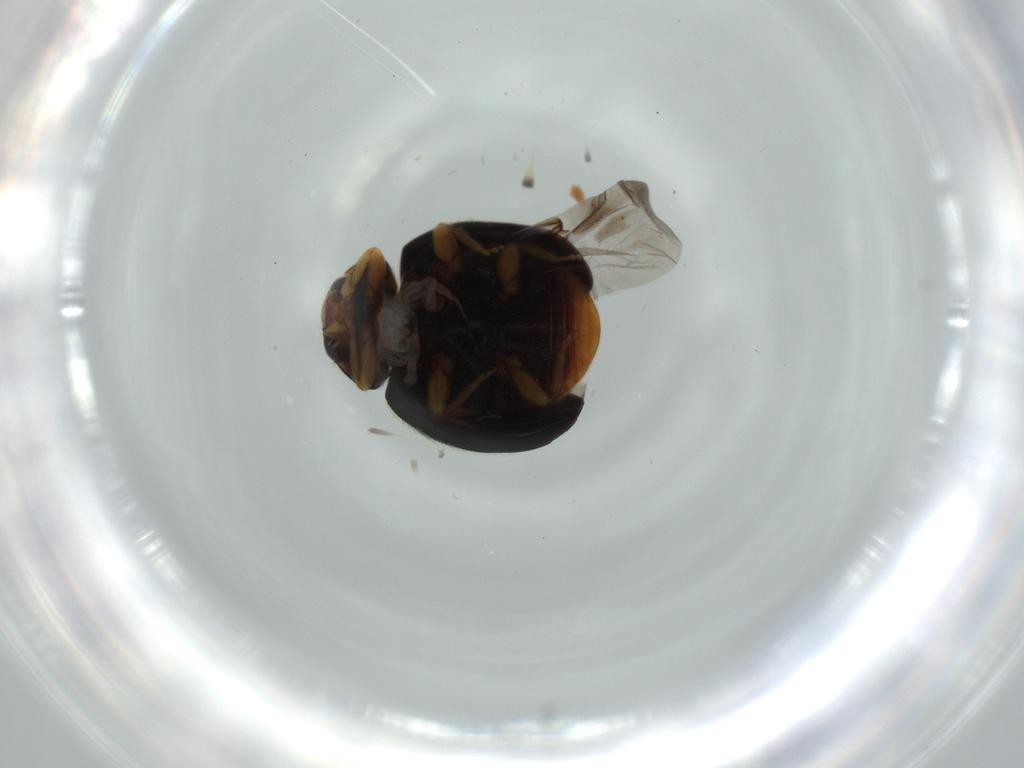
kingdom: Animalia
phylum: Arthropoda
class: Insecta
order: Coleoptera
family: Coccinellidae
